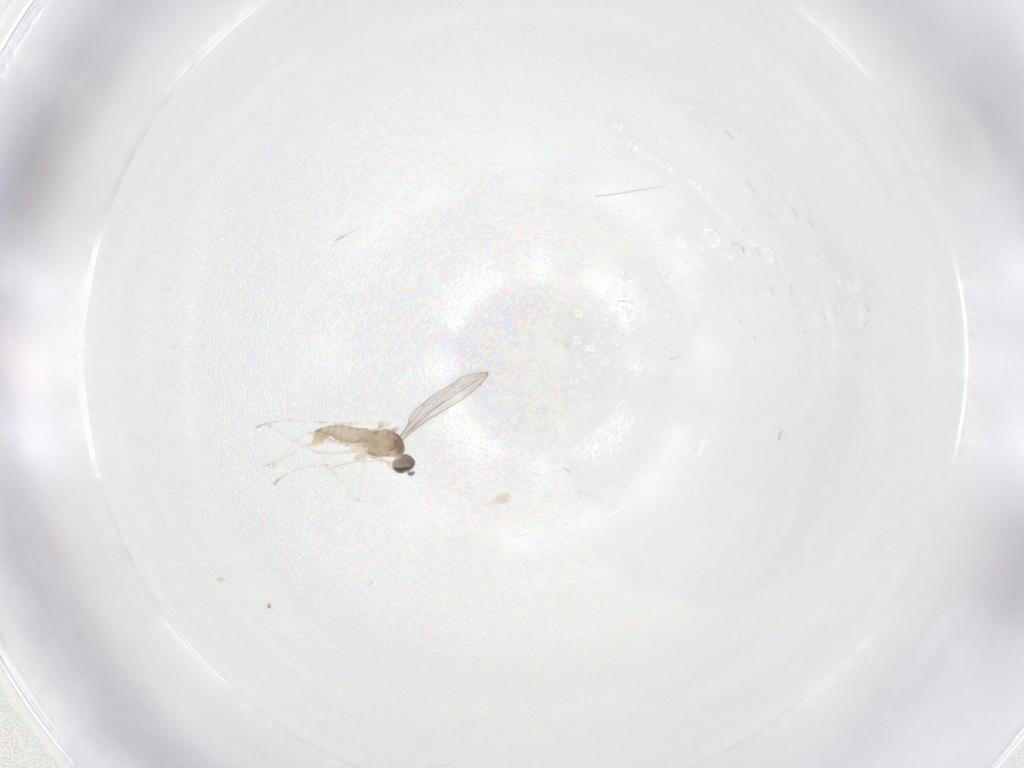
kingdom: Animalia
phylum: Arthropoda
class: Insecta
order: Diptera
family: Cecidomyiidae
